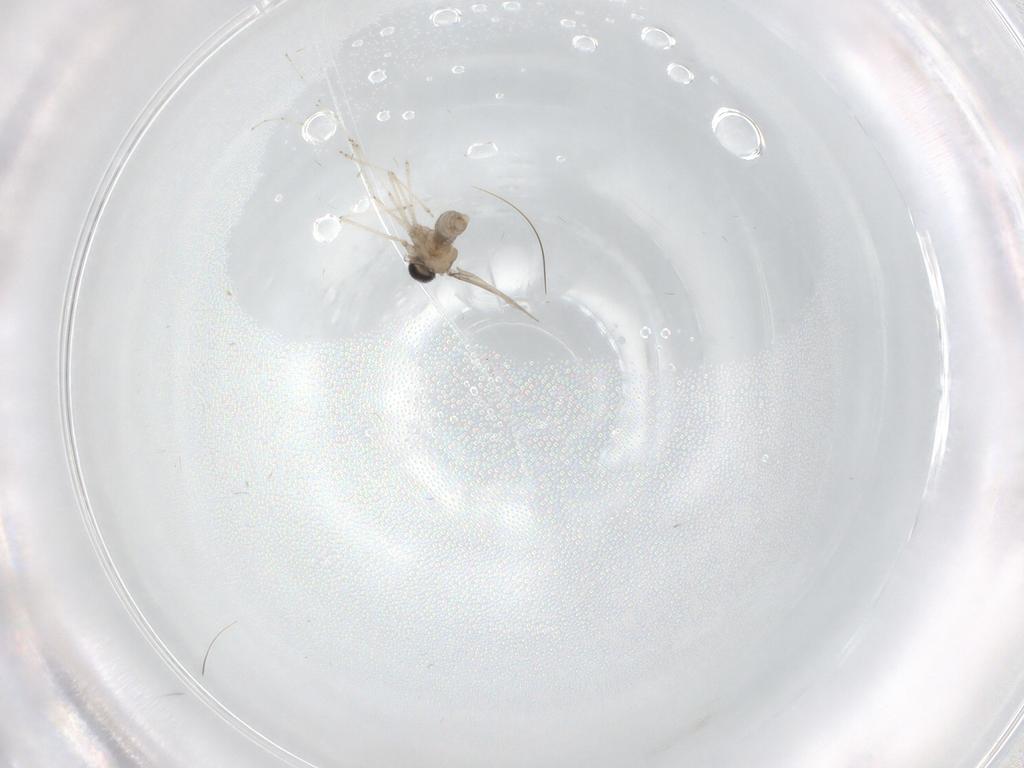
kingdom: Animalia
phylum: Arthropoda
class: Insecta
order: Diptera
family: Cecidomyiidae
